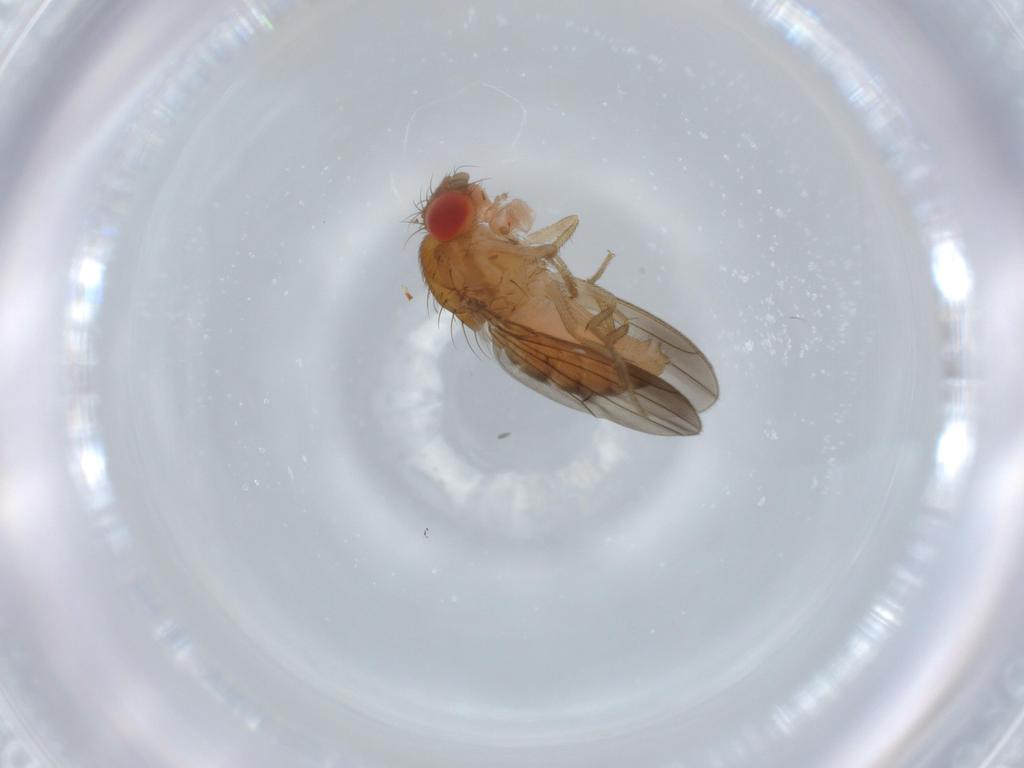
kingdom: Animalia
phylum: Arthropoda
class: Insecta
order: Diptera
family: Drosophilidae
